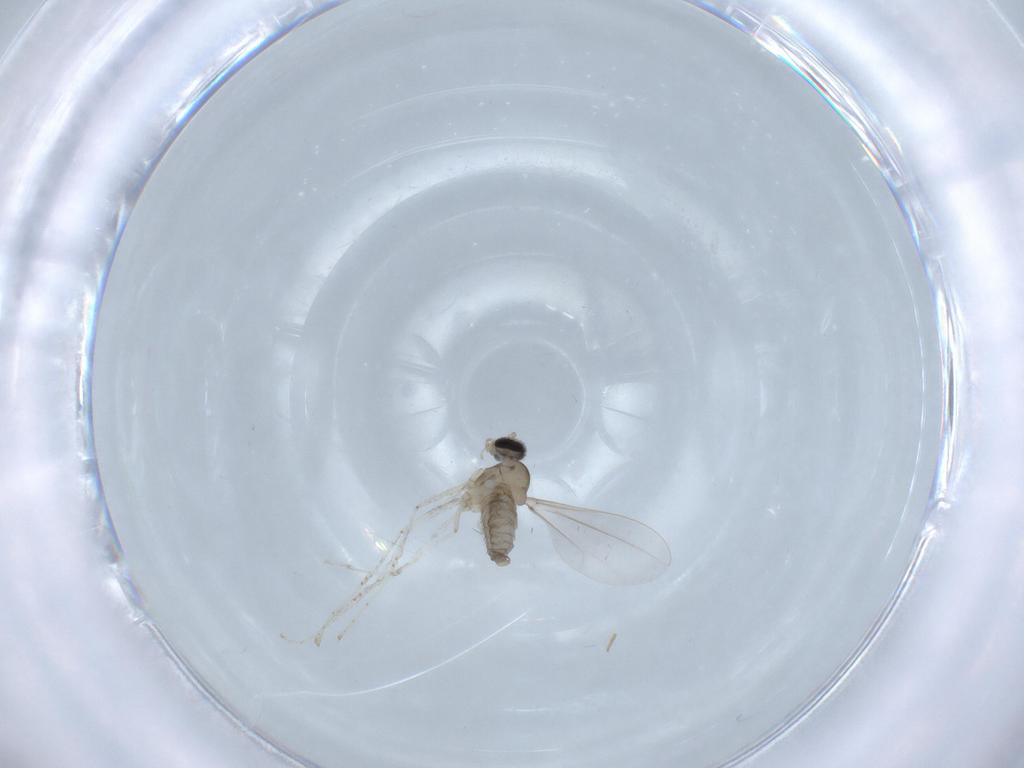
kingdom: Animalia
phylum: Arthropoda
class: Insecta
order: Diptera
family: Cecidomyiidae
